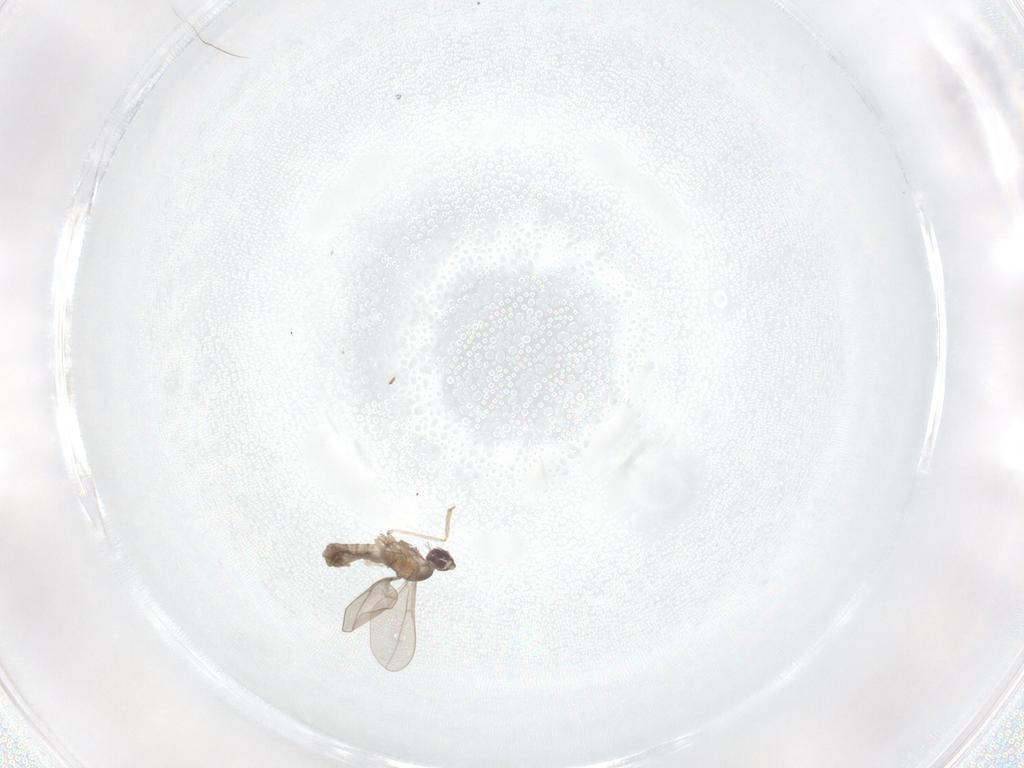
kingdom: Animalia
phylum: Arthropoda
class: Insecta
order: Diptera
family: Cecidomyiidae
